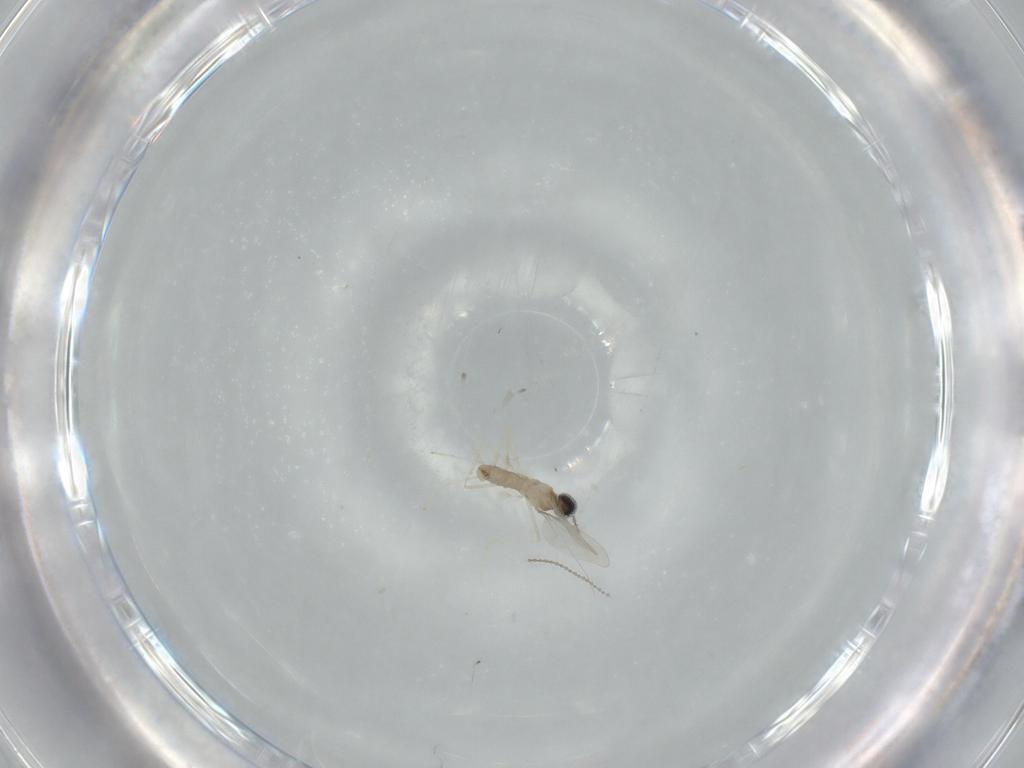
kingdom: Animalia
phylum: Arthropoda
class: Insecta
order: Diptera
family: Cecidomyiidae
